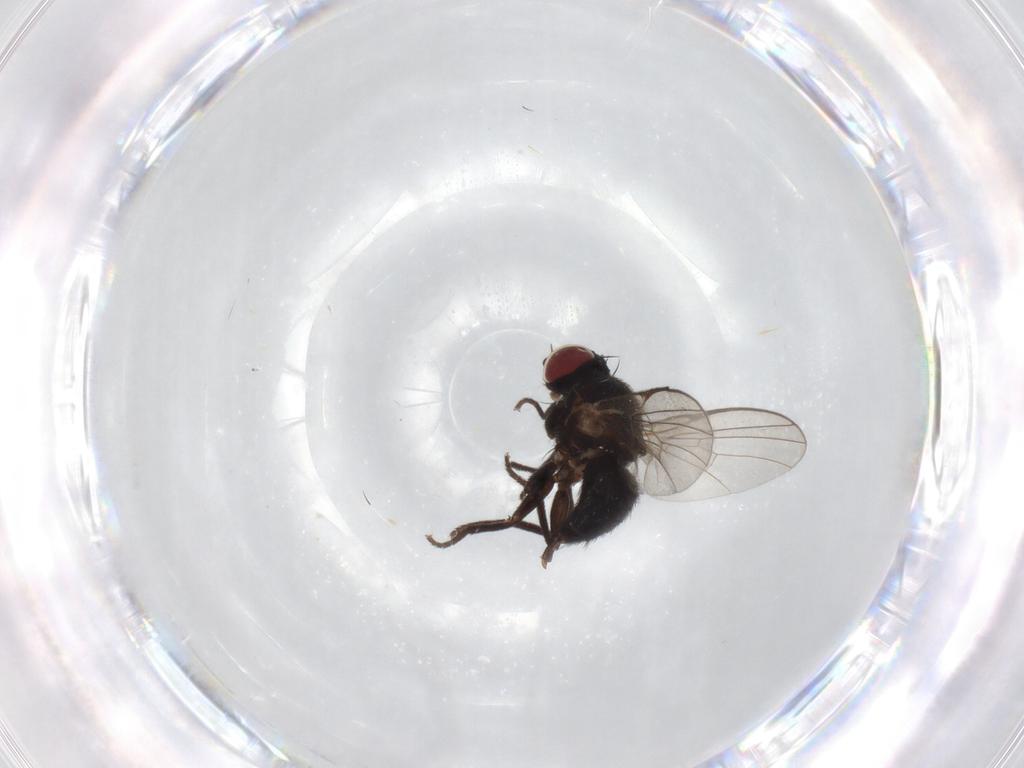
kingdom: Animalia
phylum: Arthropoda
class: Insecta
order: Diptera
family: Clusiidae
